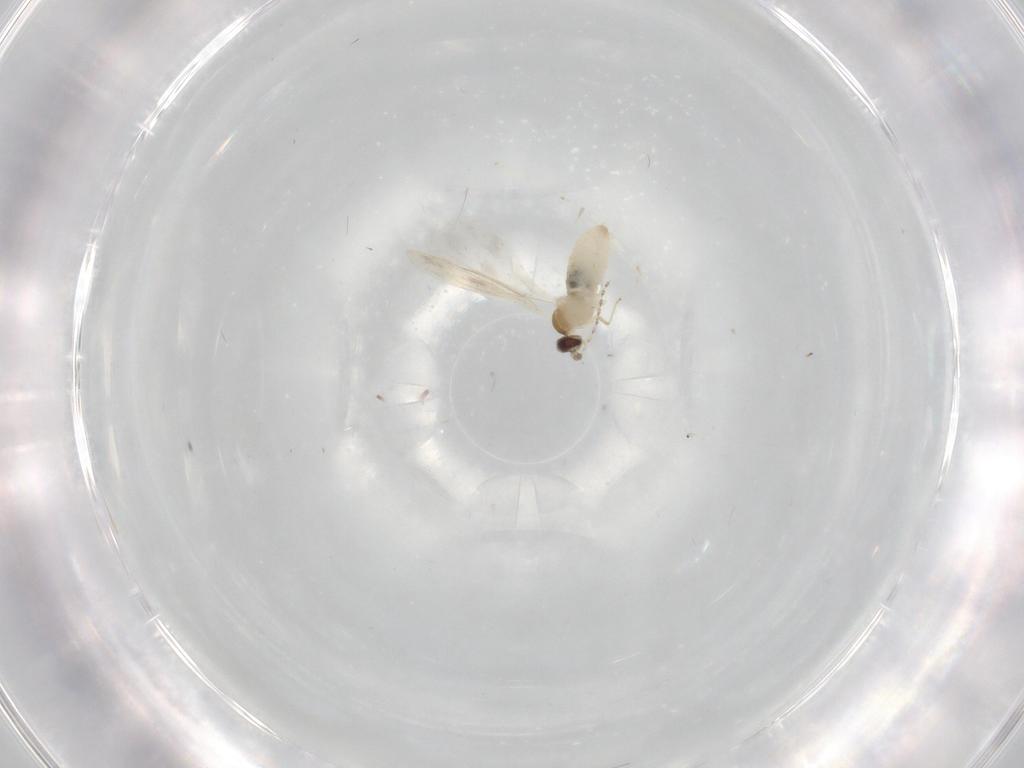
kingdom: Animalia
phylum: Arthropoda
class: Insecta
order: Diptera
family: Cecidomyiidae
